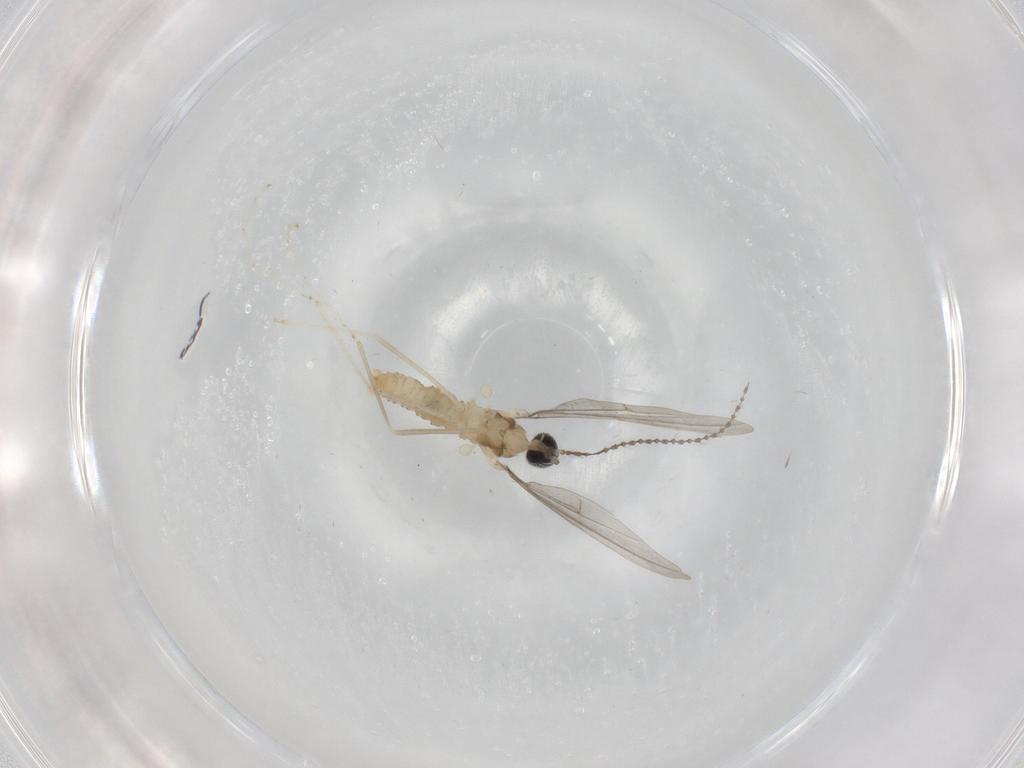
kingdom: Animalia
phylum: Arthropoda
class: Insecta
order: Diptera
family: Cecidomyiidae
